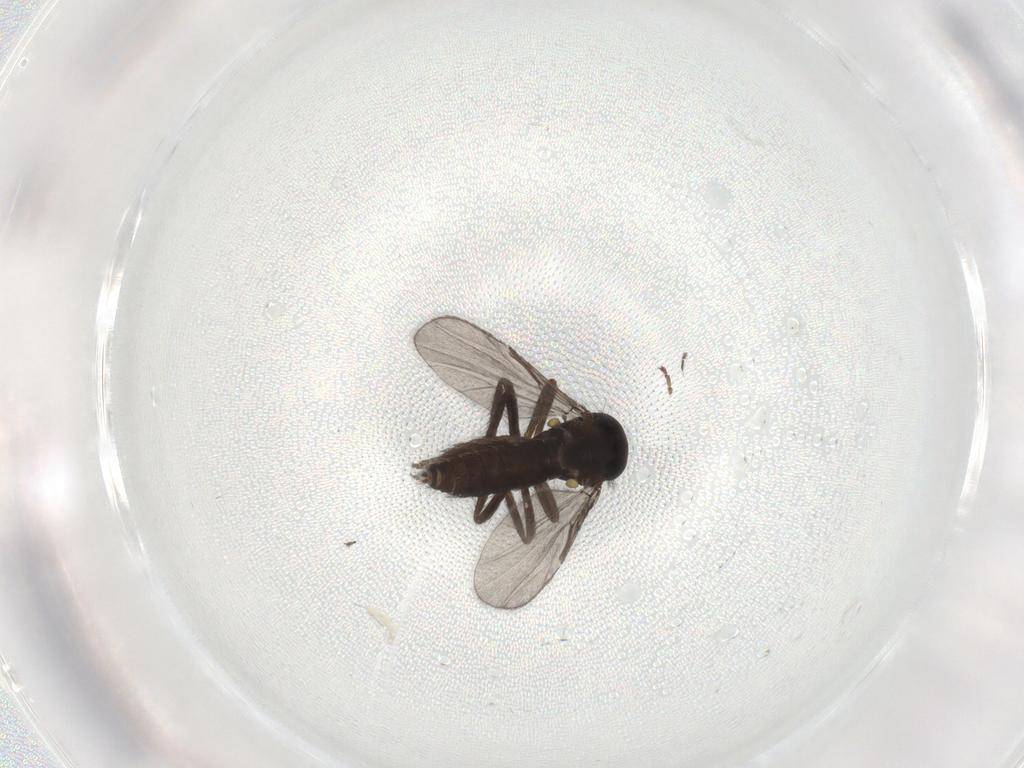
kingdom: Animalia
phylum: Arthropoda
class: Insecta
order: Diptera
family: Ceratopogonidae
